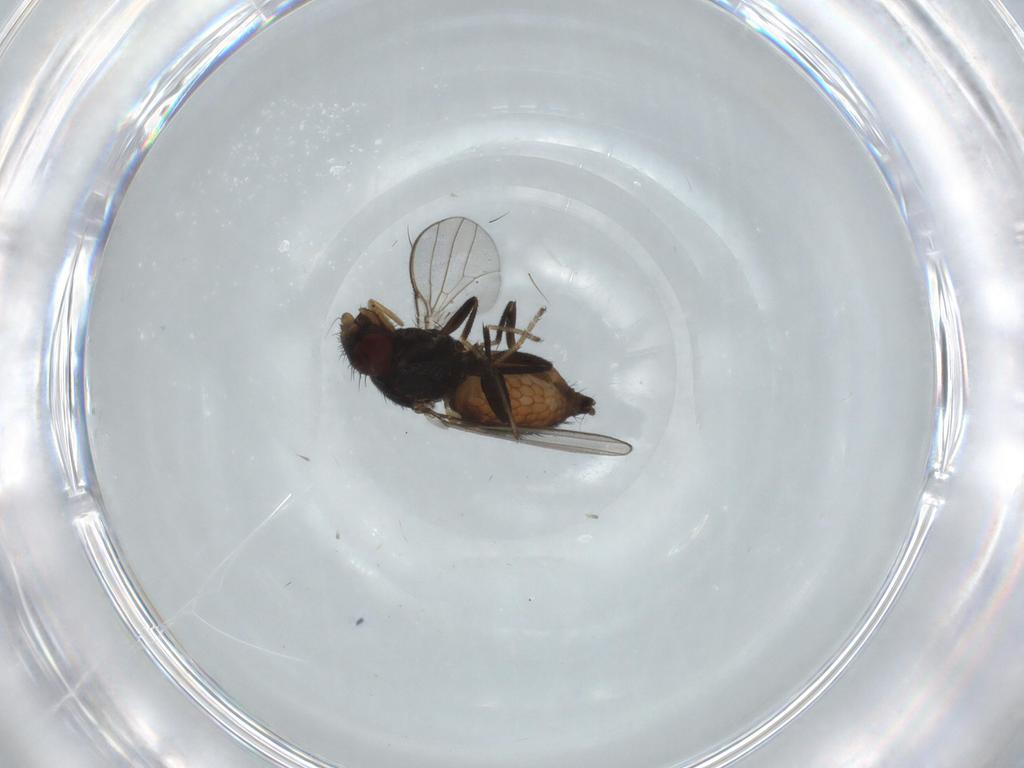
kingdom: Animalia
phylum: Arthropoda
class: Insecta
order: Diptera
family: Milichiidae
